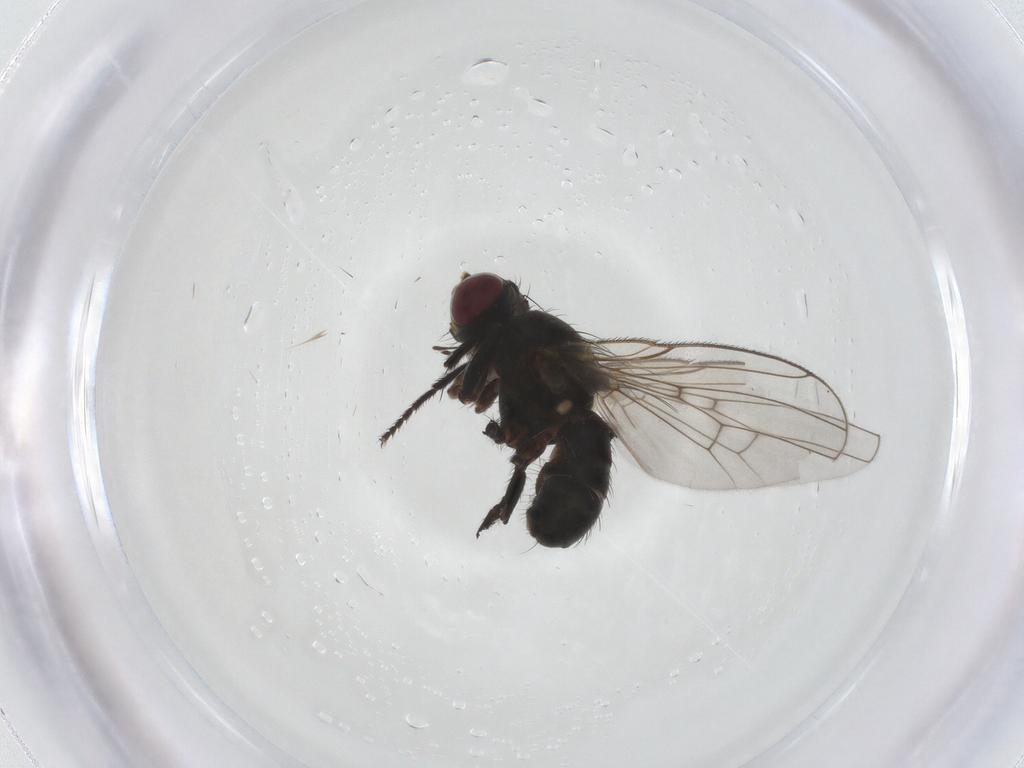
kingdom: Animalia
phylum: Arthropoda
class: Insecta
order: Diptera
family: Muscidae
